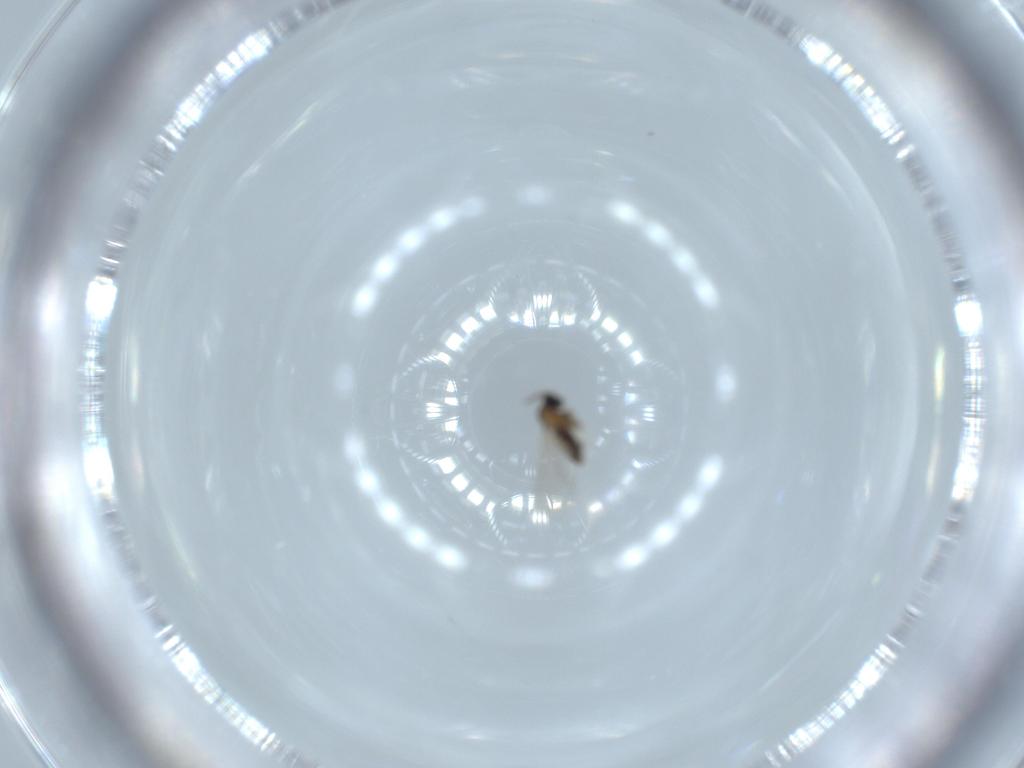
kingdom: Animalia
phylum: Arthropoda
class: Insecta
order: Diptera
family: Cecidomyiidae
